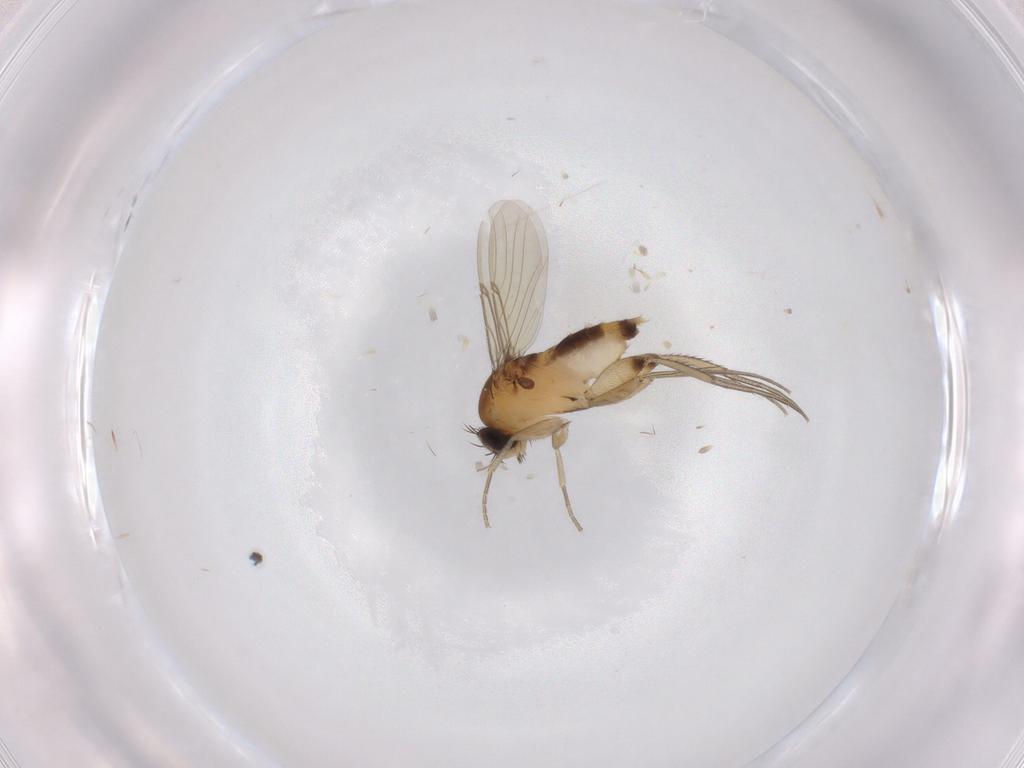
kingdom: Animalia
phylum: Arthropoda
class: Insecta
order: Diptera
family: Phoridae
